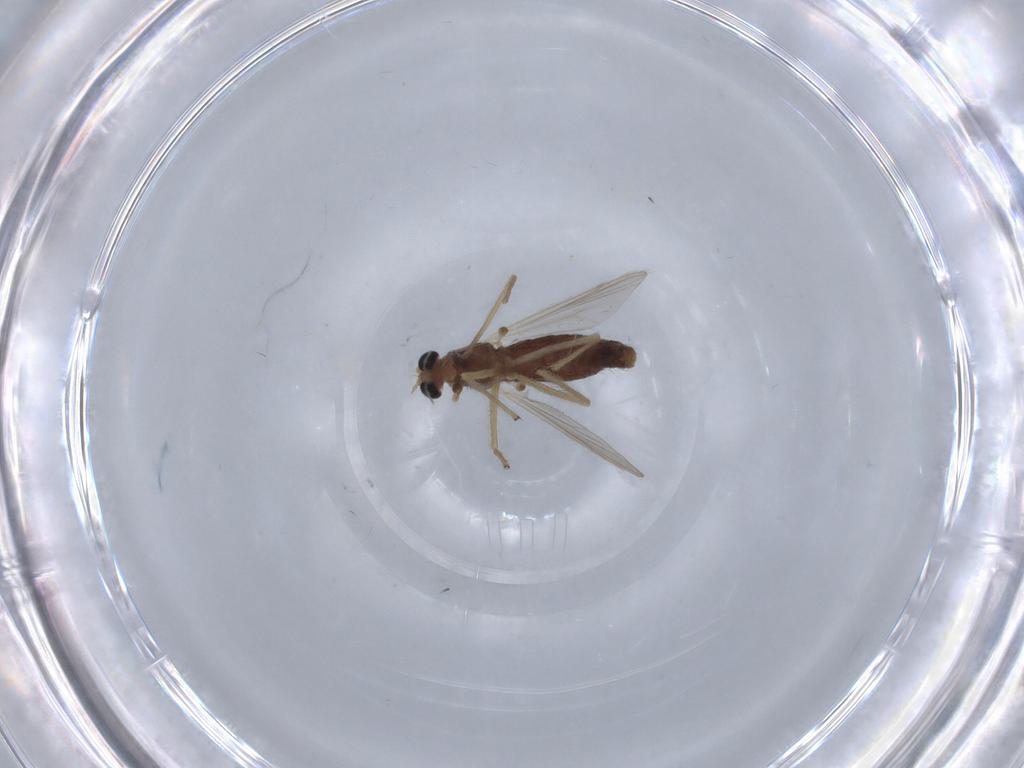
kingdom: Animalia
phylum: Arthropoda
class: Insecta
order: Diptera
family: Chironomidae
